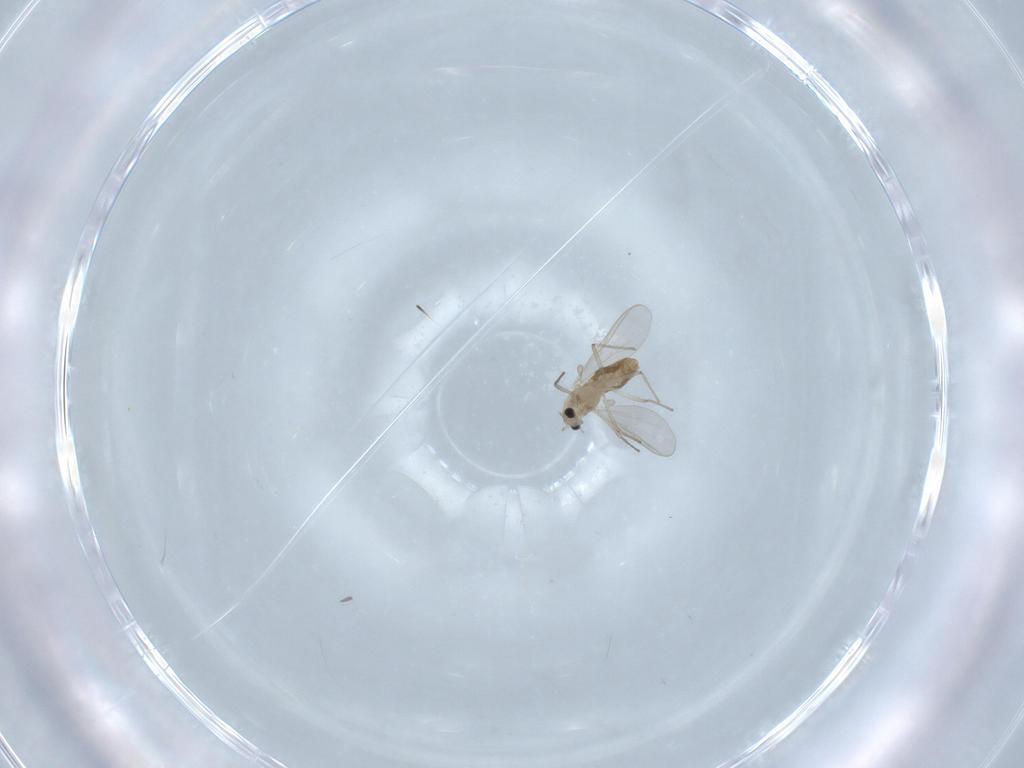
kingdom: Animalia
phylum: Arthropoda
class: Insecta
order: Diptera
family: Chironomidae
